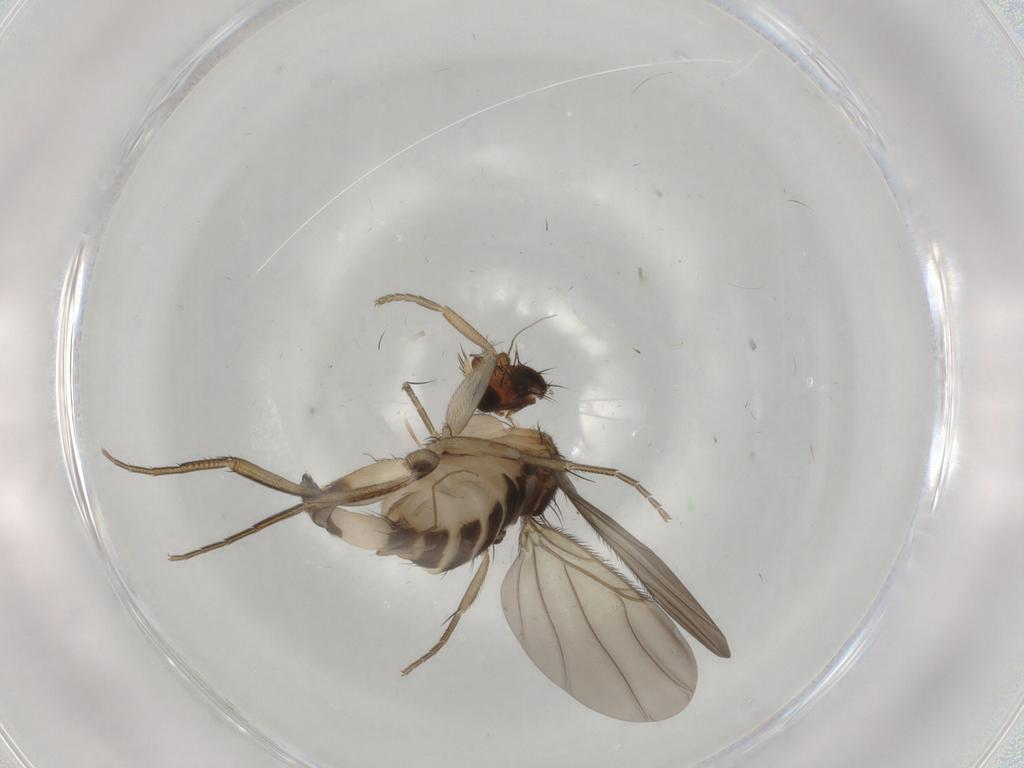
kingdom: Animalia
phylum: Arthropoda
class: Insecta
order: Diptera
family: Phoridae
